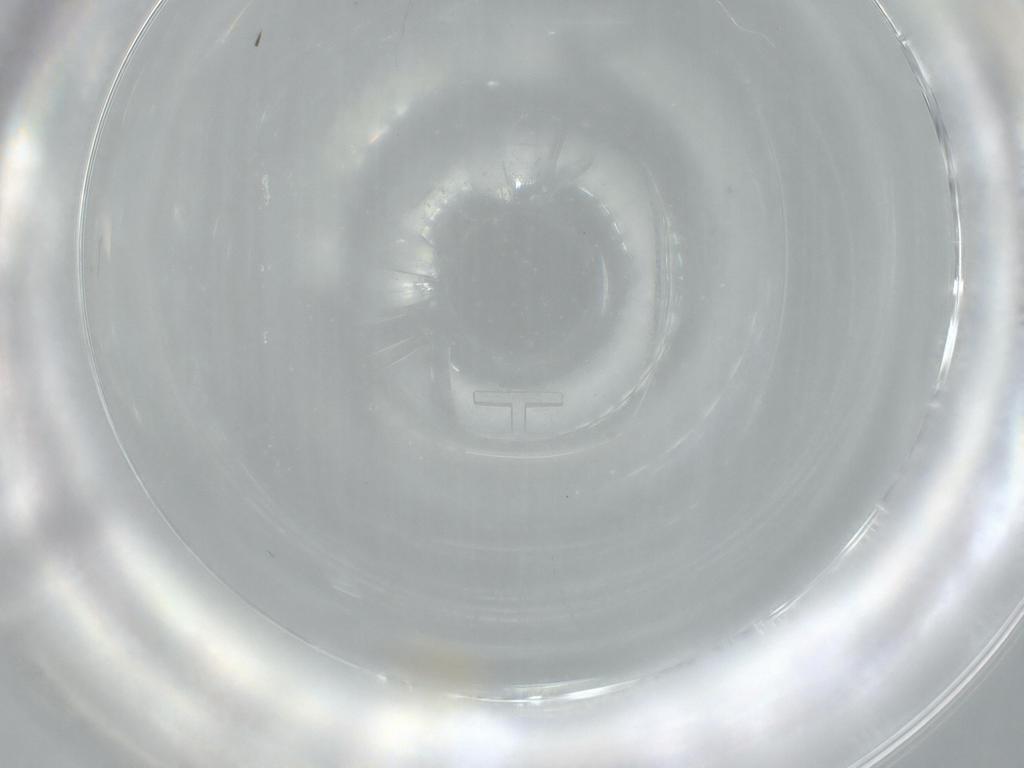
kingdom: Animalia
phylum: Arthropoda
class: Insecta
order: Thysanoptera
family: Thripidae
